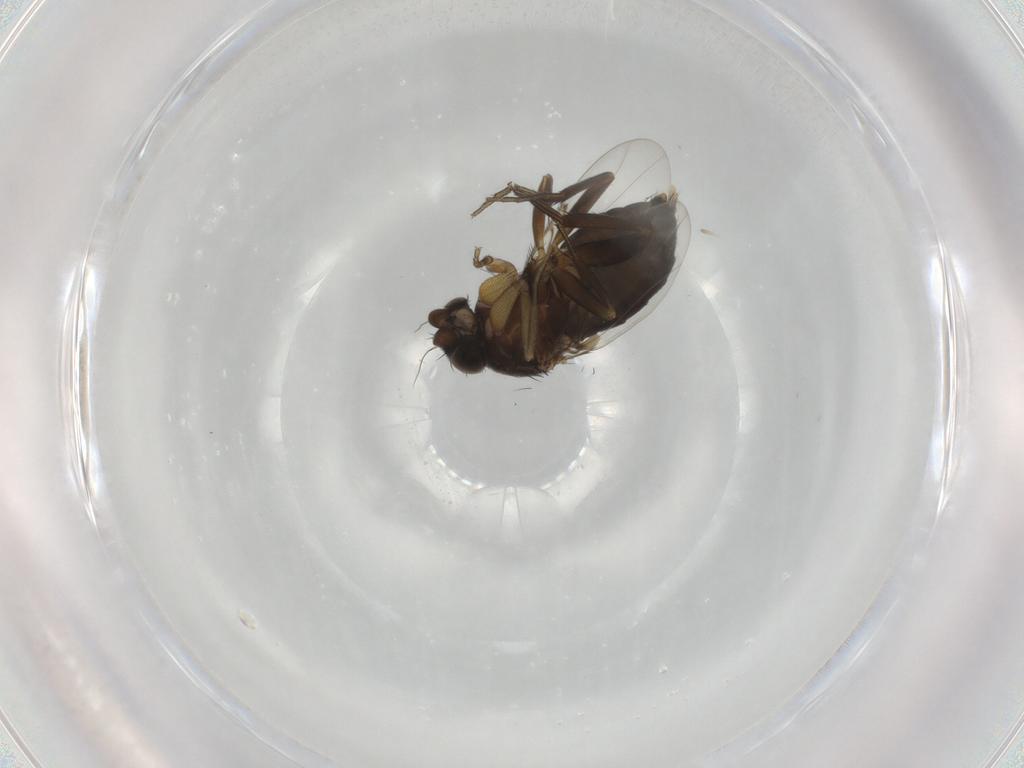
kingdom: Animalia
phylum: Arthropoda
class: Insecta
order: Diptera
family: Phoridae
